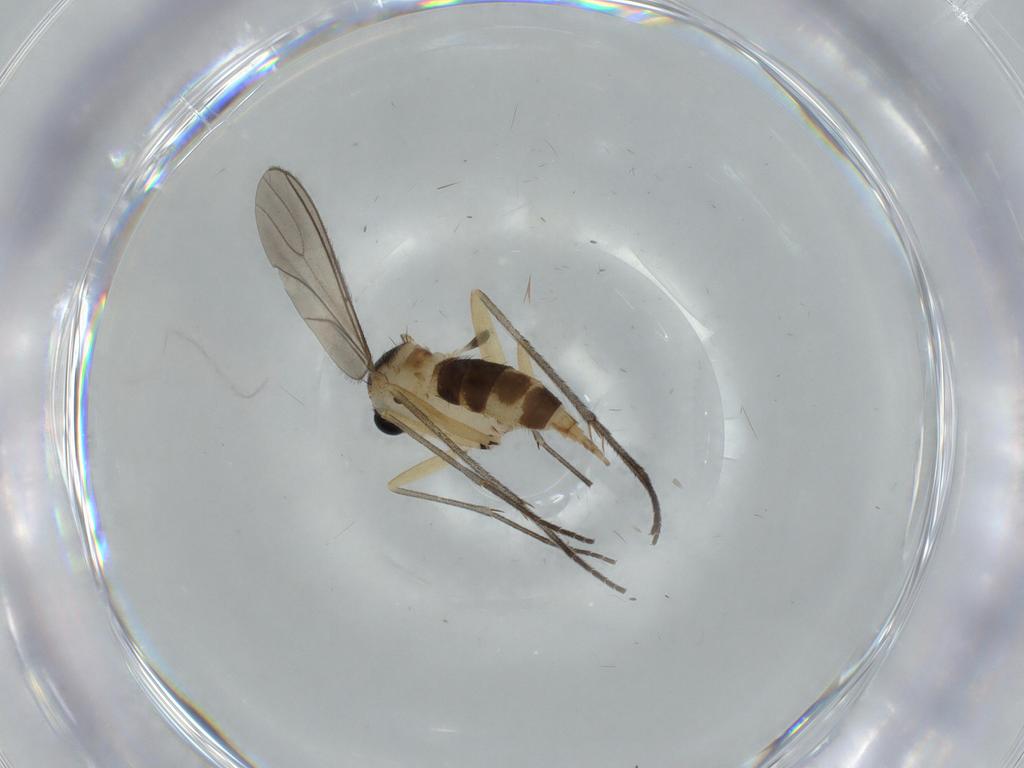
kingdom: Animalia
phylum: Arthropoda
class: Insecta
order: Diptera
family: Sciaridae
